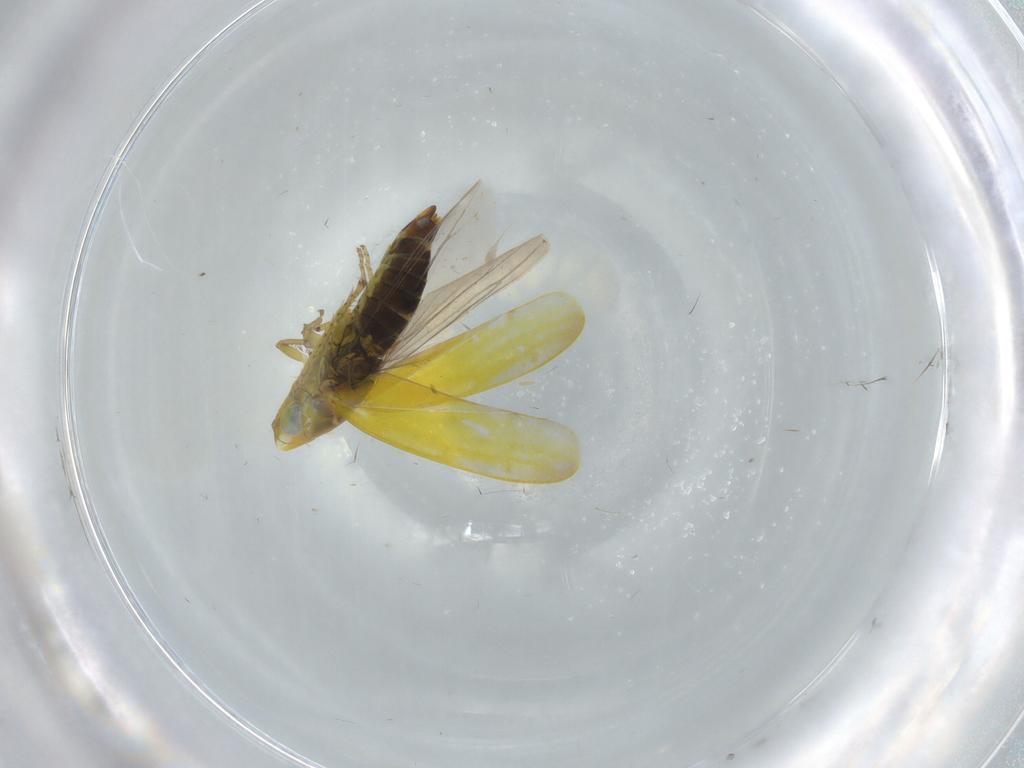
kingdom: Animalia
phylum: Arthropoda
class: Insecta
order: Hemiptera
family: Cicadellidae
